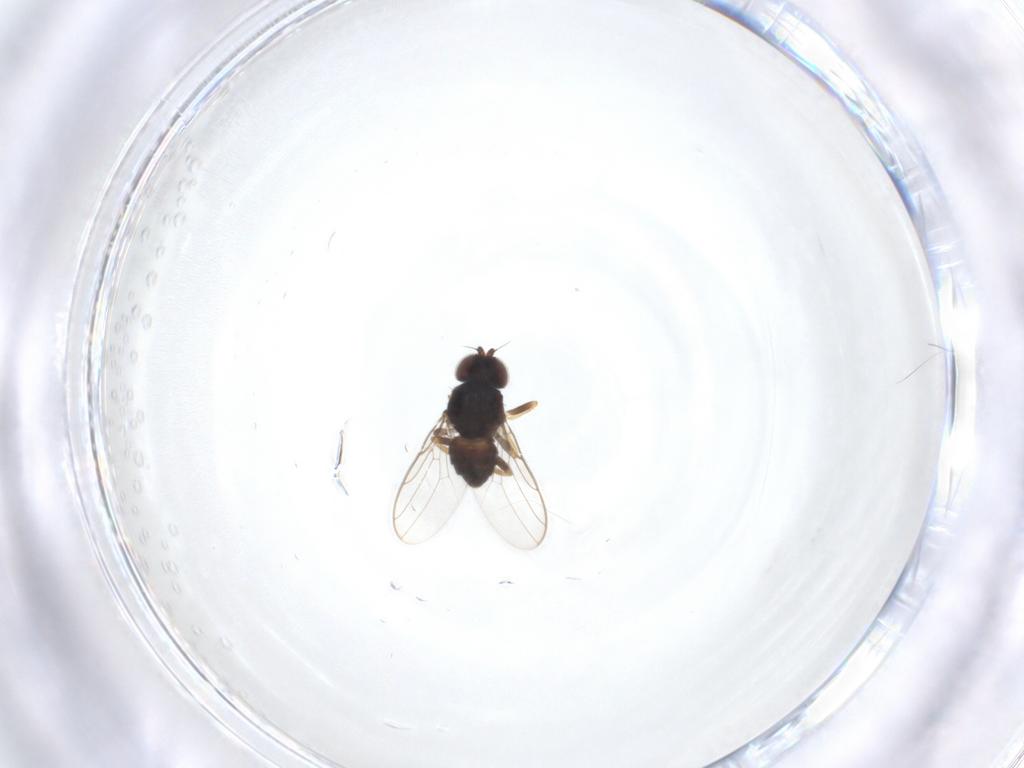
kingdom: Animalia
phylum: Arthropoda
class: Insecta
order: Diptera
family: Chloropidae
